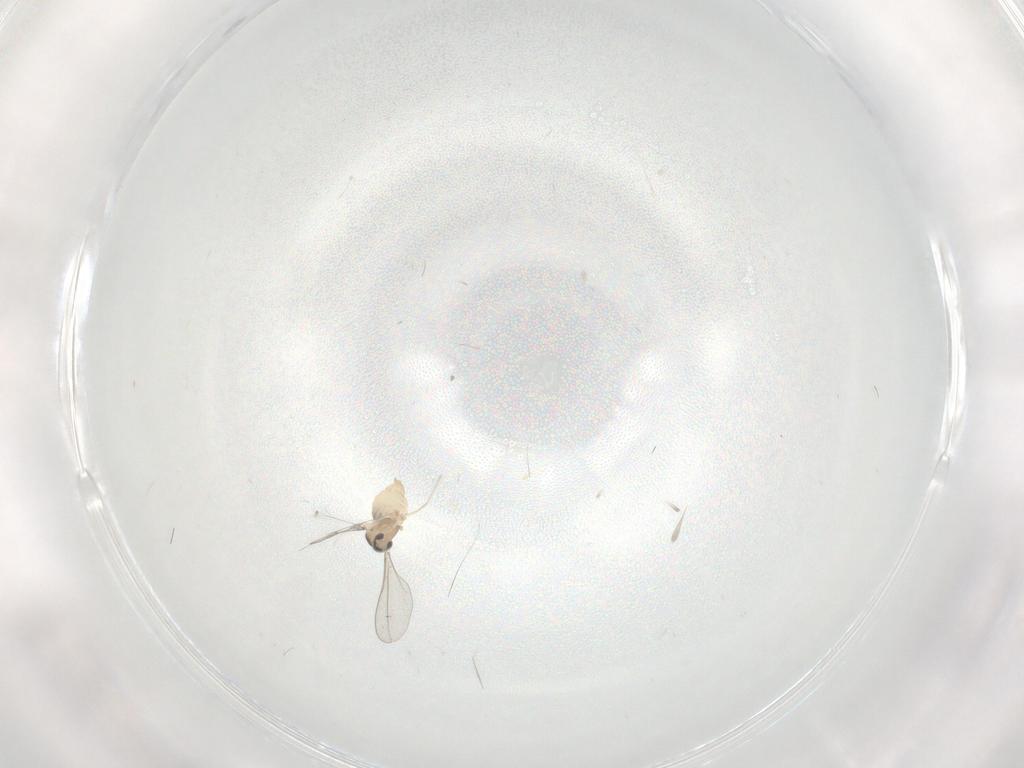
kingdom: Animalia
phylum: Arthropoda
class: Insecta
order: Diptera
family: Cecidomyiidae
